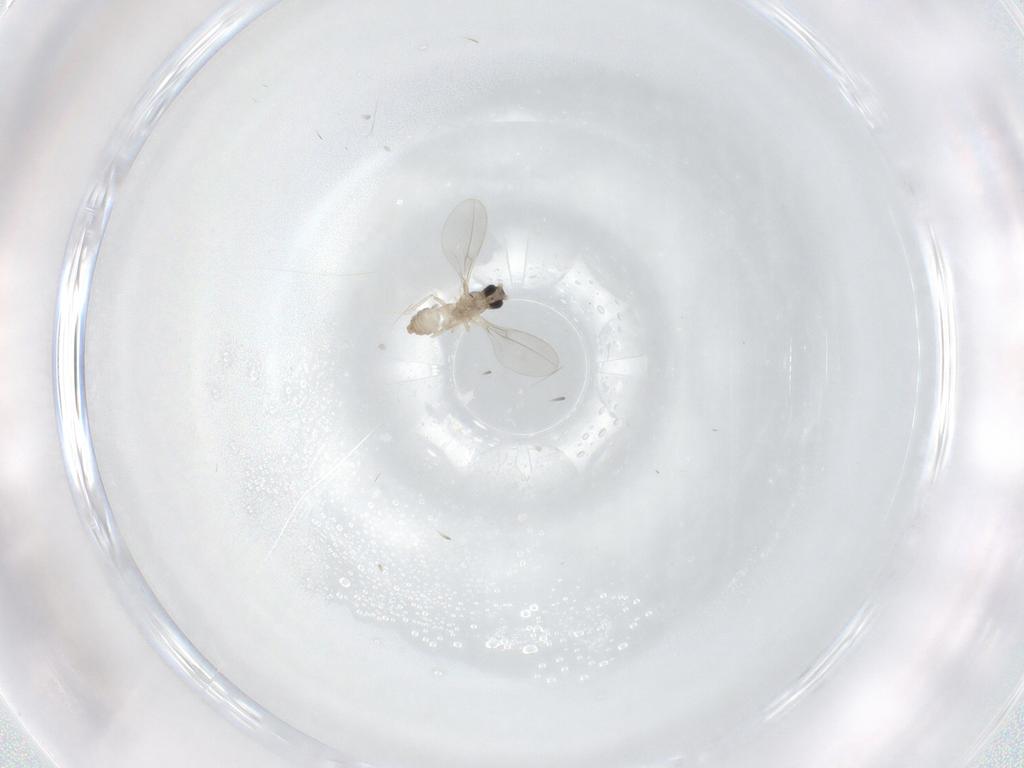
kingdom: Animalia
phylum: Arthropoda
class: Insecta
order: Diptera
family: Cecidomyiidae
